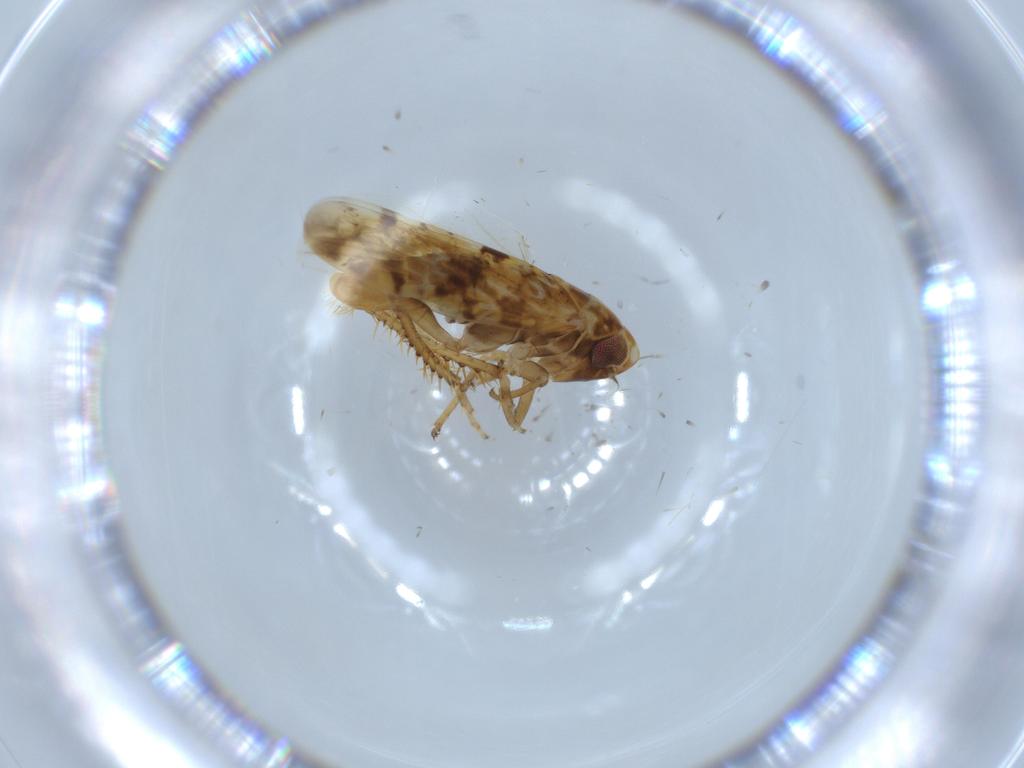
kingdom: Animalia
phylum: Arthropoda
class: Insecta
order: Hemiptera
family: Cicadellidae
